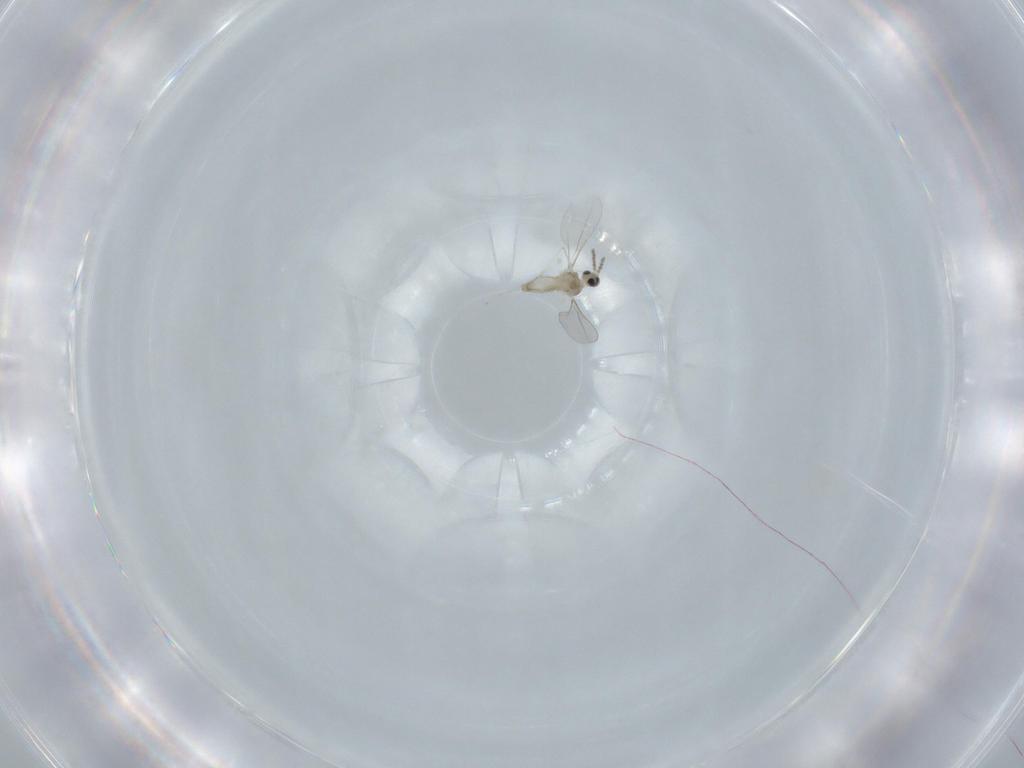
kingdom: Animalia
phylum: Arthropoda
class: Insecta
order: Diptera
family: Cecidomyiidae
